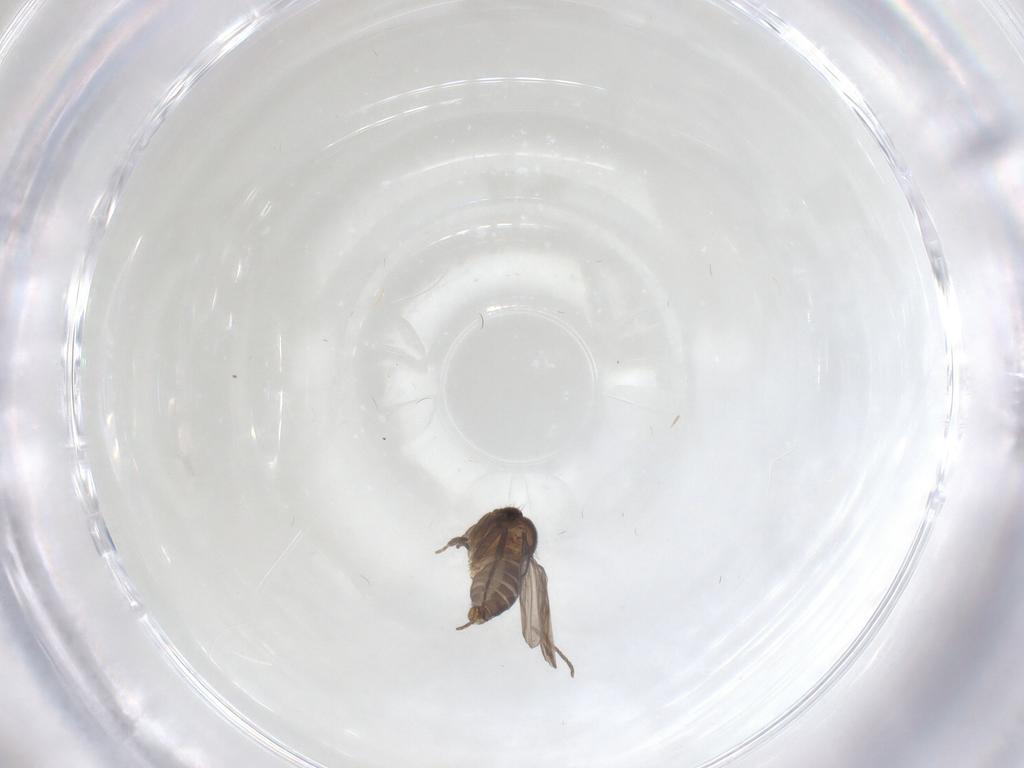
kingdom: Animalia
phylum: Arthropoda
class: Insecta
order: Diptera
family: Chironomidae
